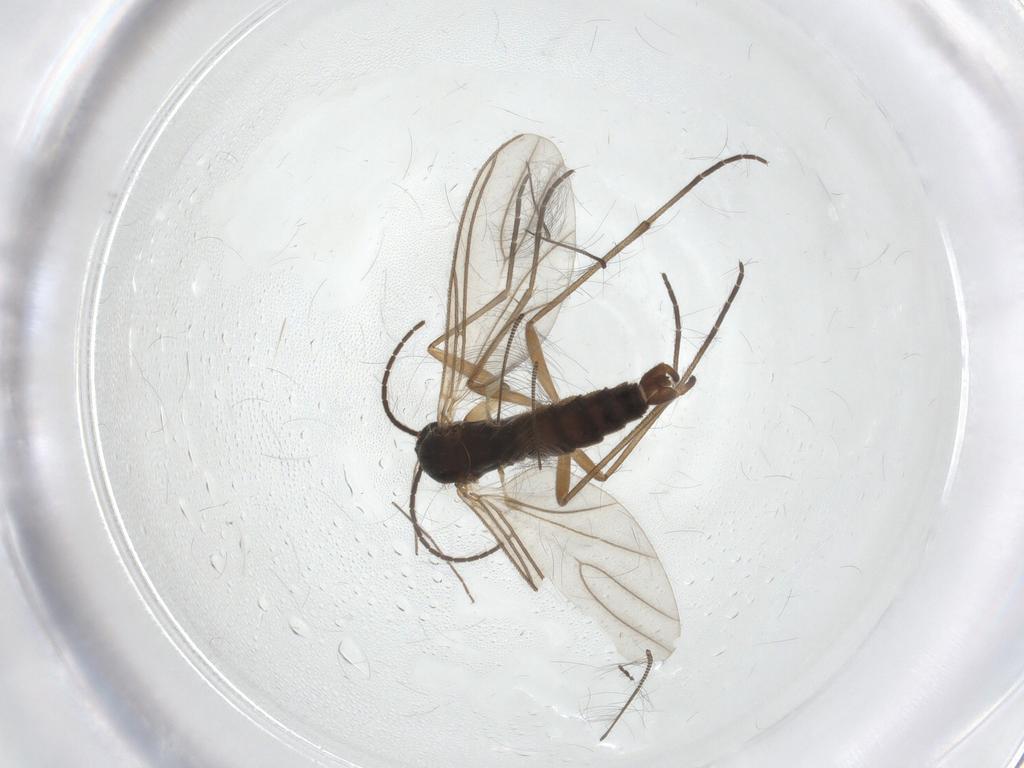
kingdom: Animalia
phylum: Arthropoda
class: Insecta
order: Diptera
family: Sciaridae
